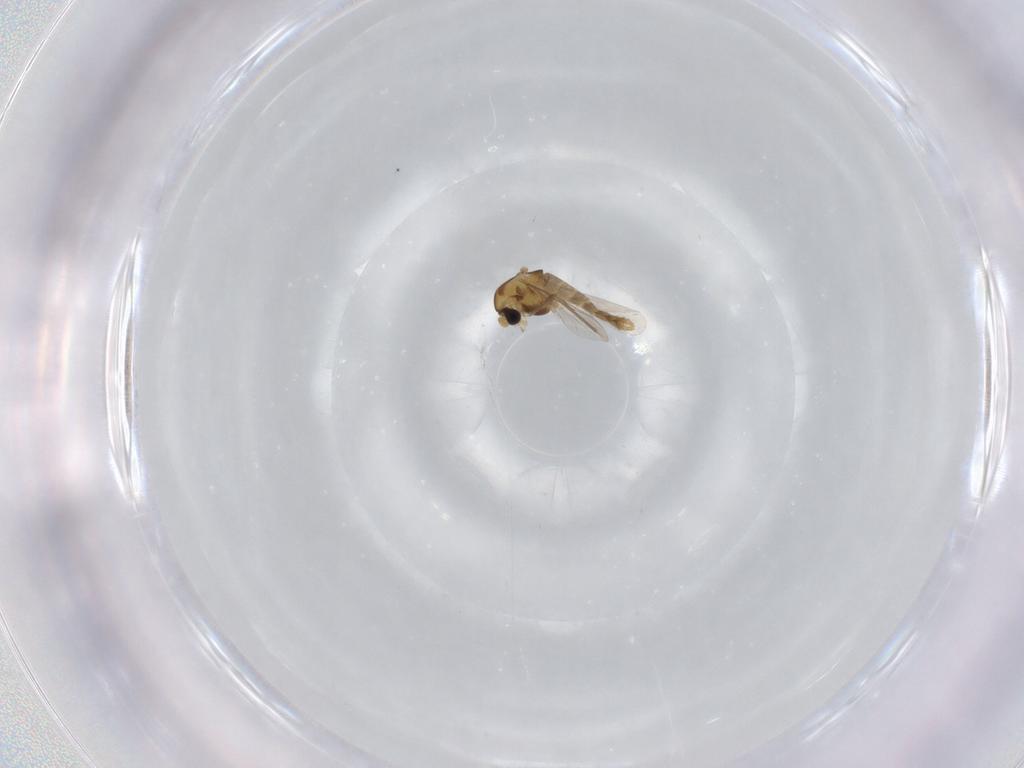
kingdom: Animalia
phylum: Arthropoda
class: Insecta
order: Diptera
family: Chironomidae
